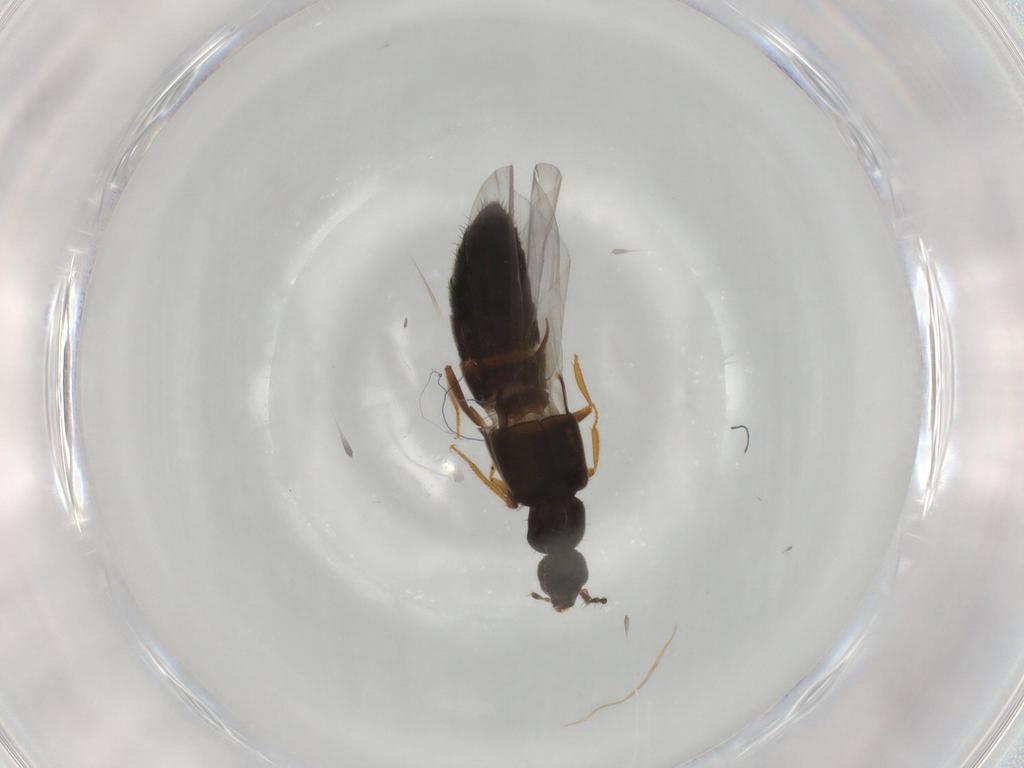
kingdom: Animalia
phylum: Arthropoda
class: Insecta
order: Coleoptera
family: Staphylinidae
